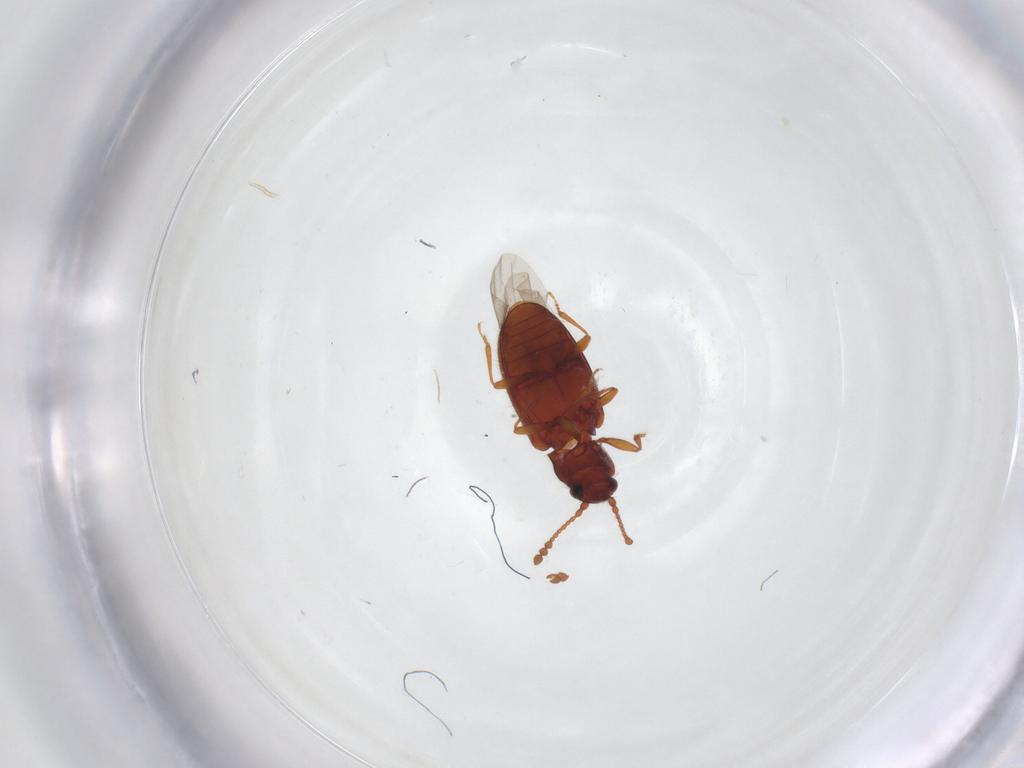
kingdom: Animalia
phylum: Arthropoda
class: Insecta
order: Coleoptera
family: Cryptophagidae
